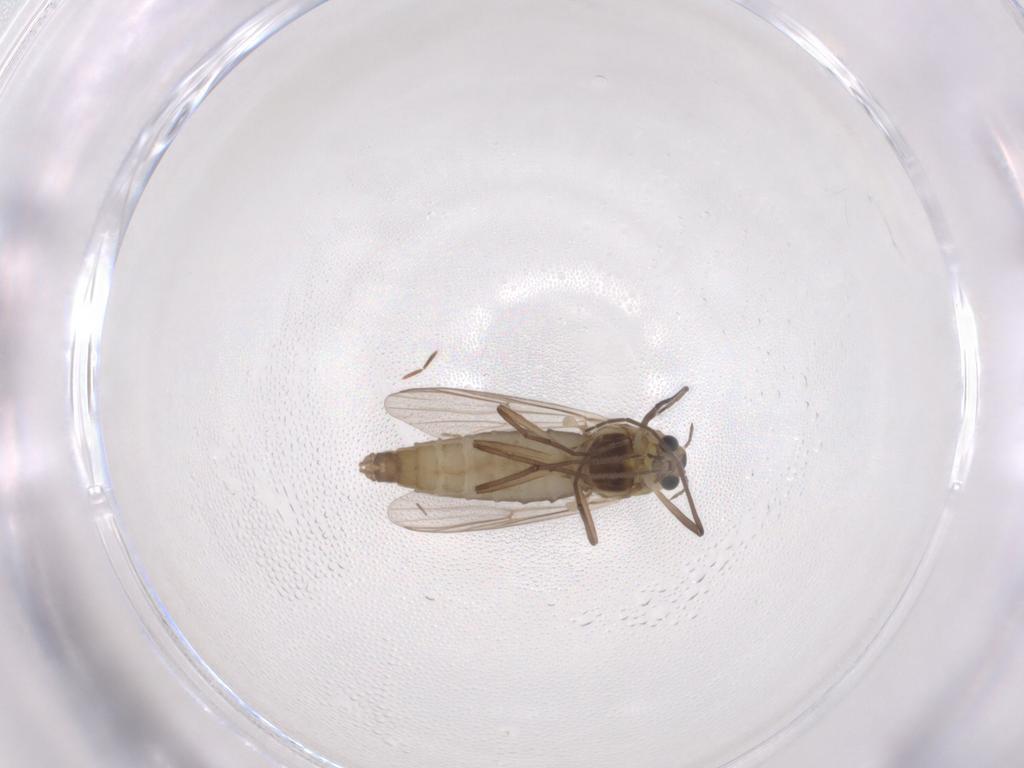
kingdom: Animalia
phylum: Arthropoda
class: Insecta
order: Diptera
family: Chironomidae
